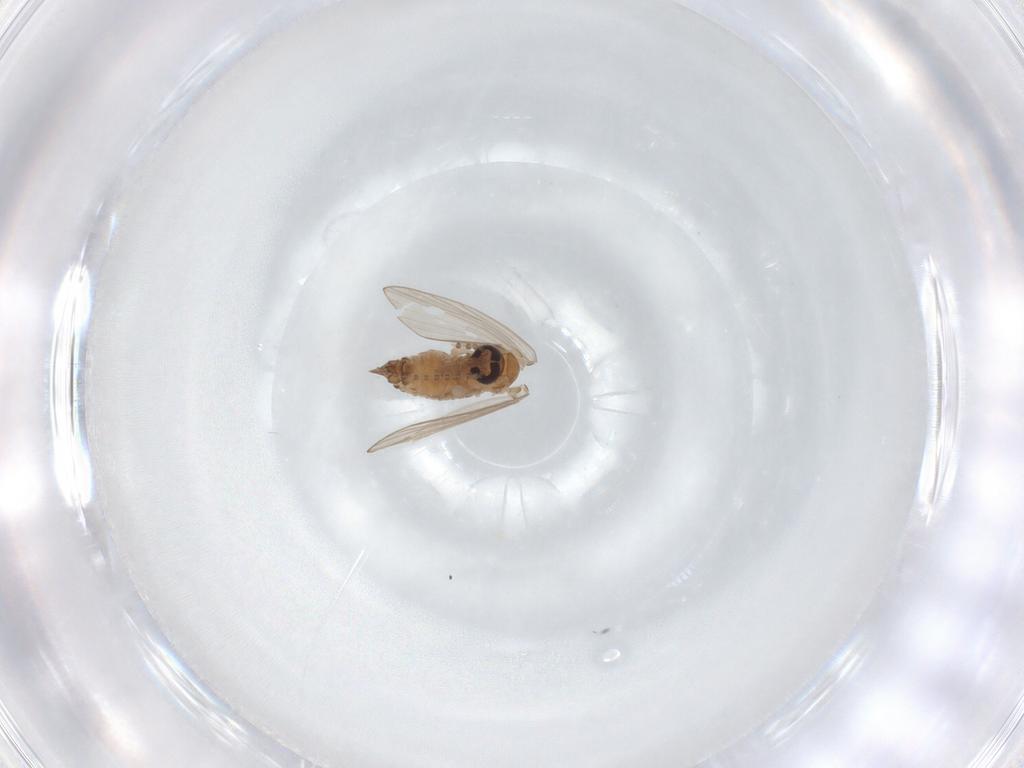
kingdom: Animalia
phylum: Arthropoda
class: Insecta
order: Diptera
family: Psychodidae
